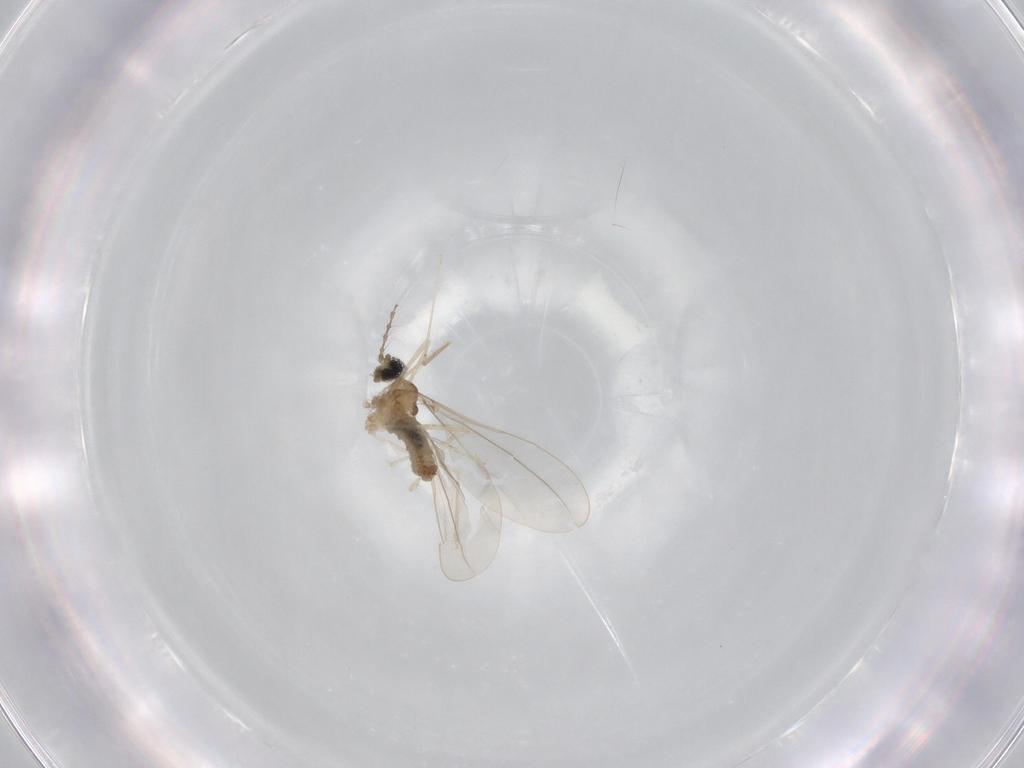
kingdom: Animalia
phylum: Arthropoda
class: Insecta
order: Diptera
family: Cecidomyiidae
